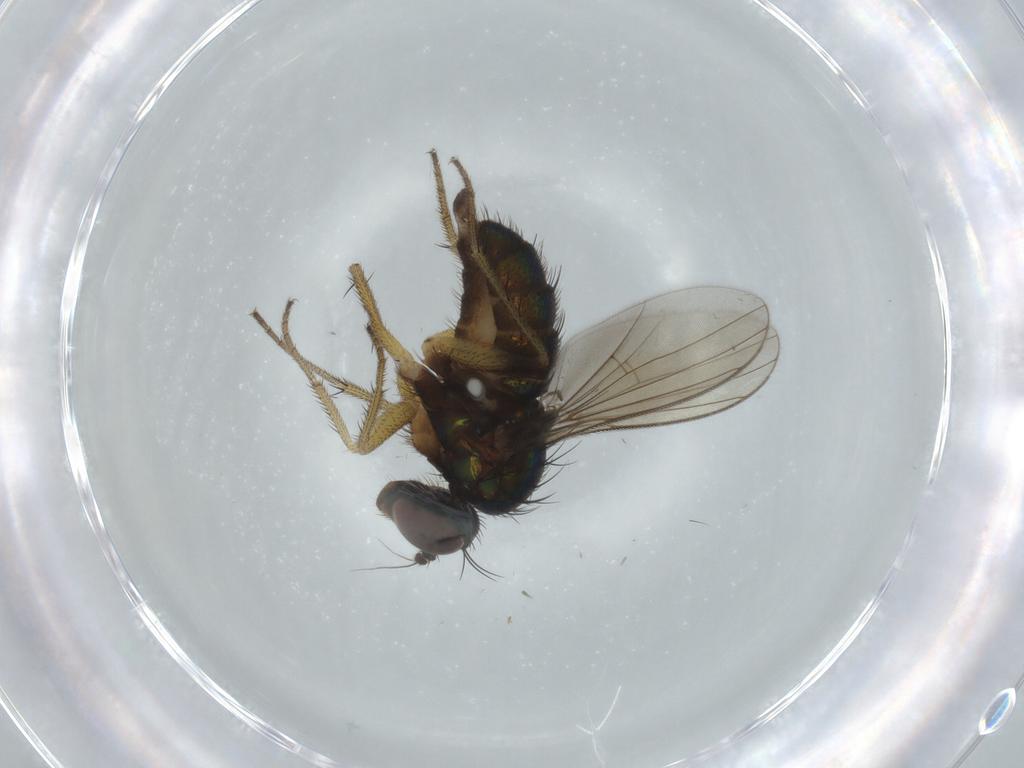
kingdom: Animalia
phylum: Arthropoda
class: Insecta
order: Diptera
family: Dolichopodidae
